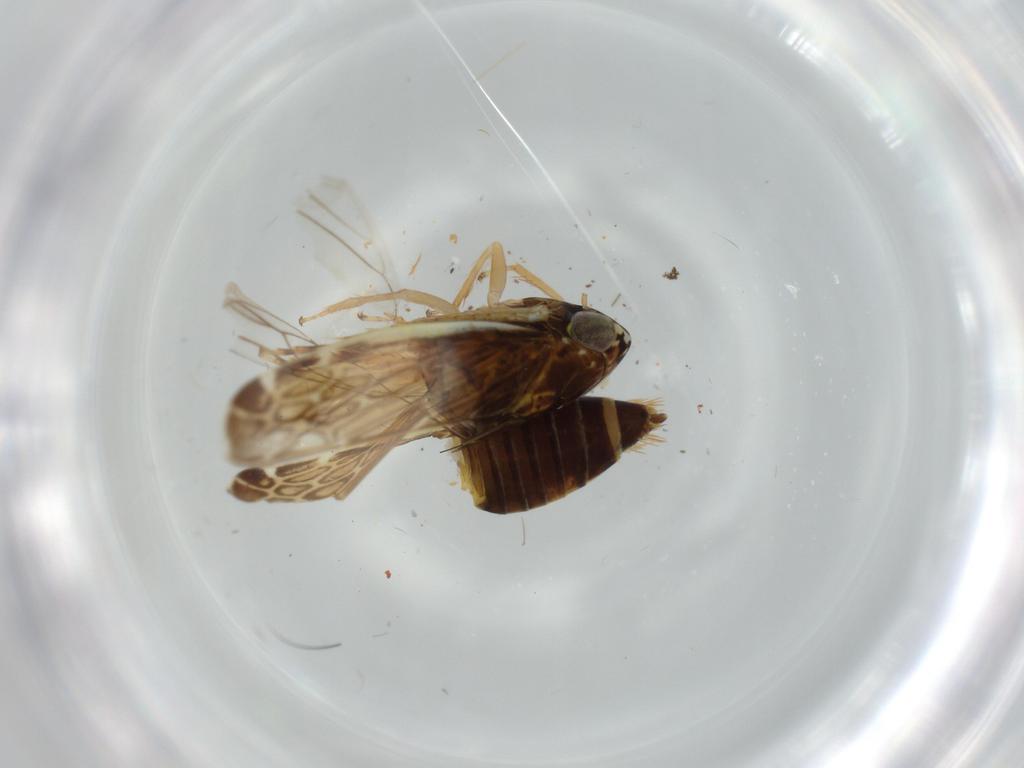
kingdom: Animalia
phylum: Arthropoda
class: Insecta
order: Hemiptera
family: Cicadellidae
